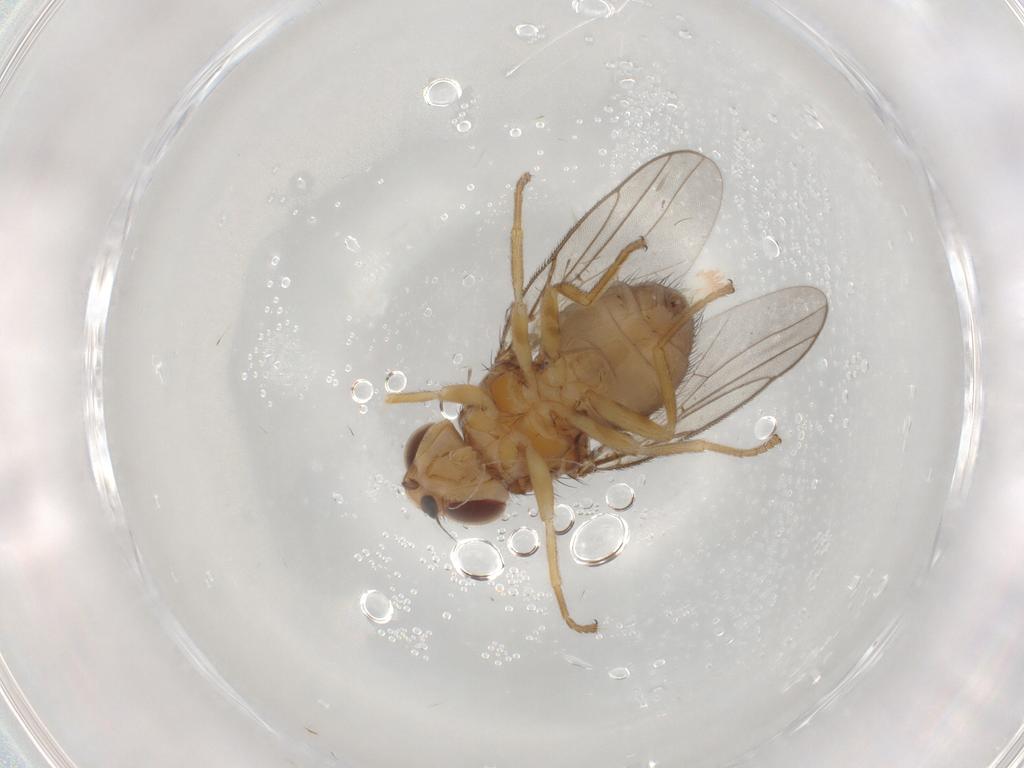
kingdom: Animalia
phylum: Arthropoda
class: Insecta
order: Diptera
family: Chloropidae
